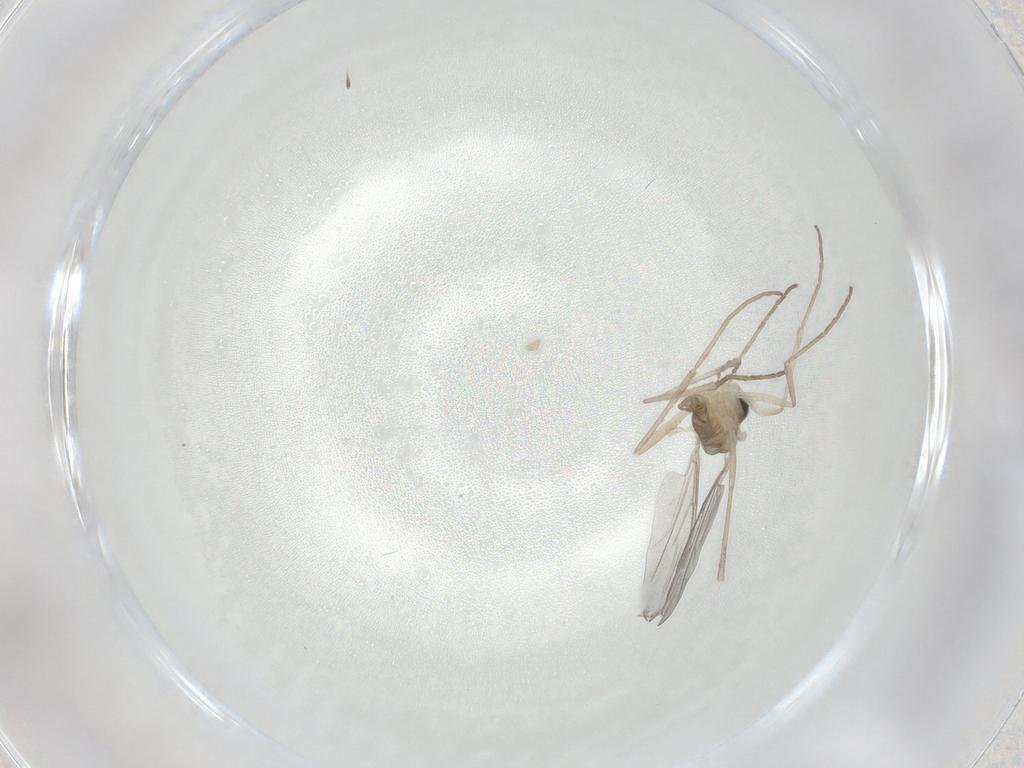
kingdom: Animalia
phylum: Arthropoda
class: Insecta
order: Diptera
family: Cecidomyiidae
